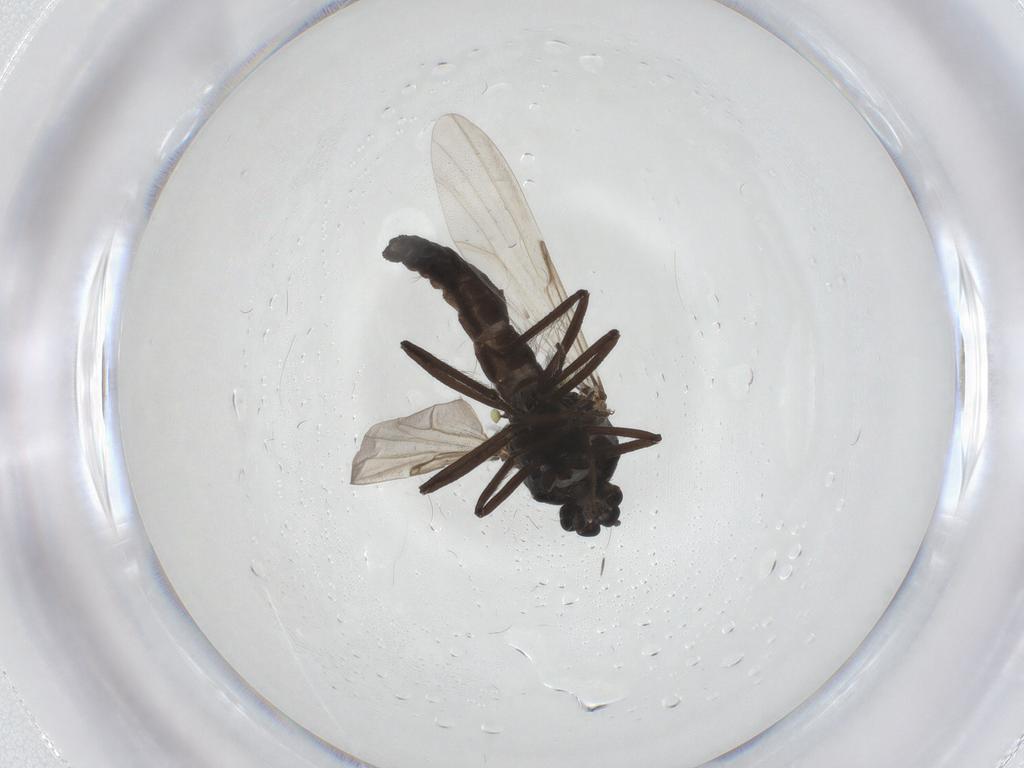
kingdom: Animalia
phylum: Arthropoda
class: Insecta
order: Diptera
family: Ceratopogonidae
